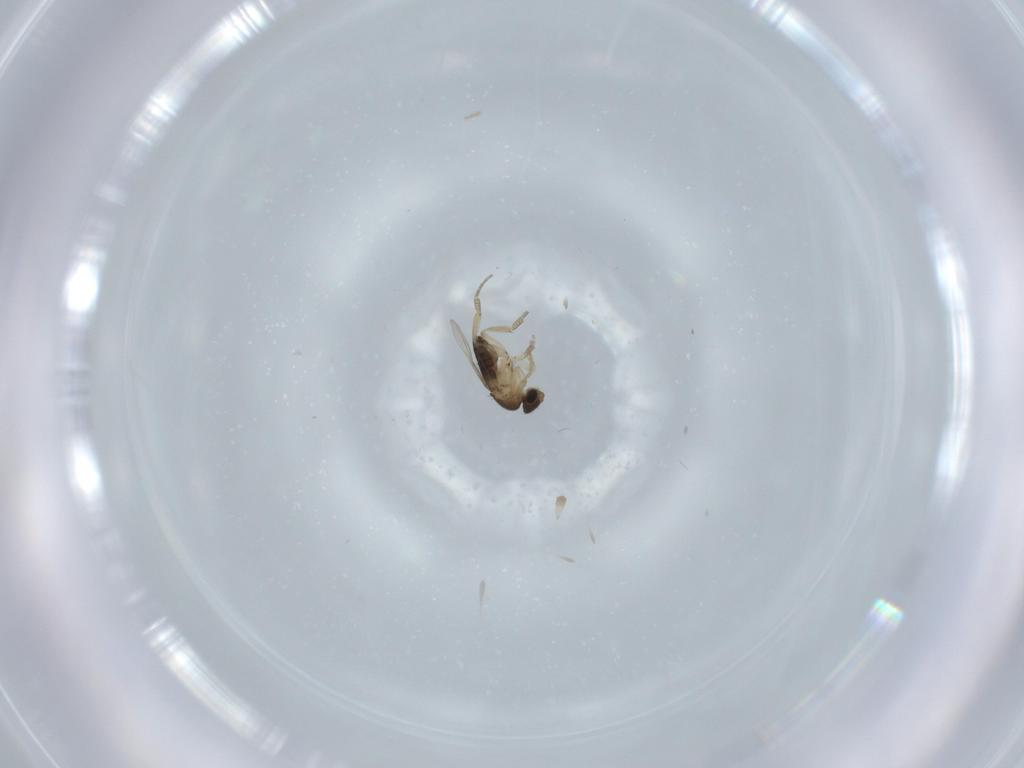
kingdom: Animalia
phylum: Arthropoda
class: Insecta
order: Diptera
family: Phoridae
